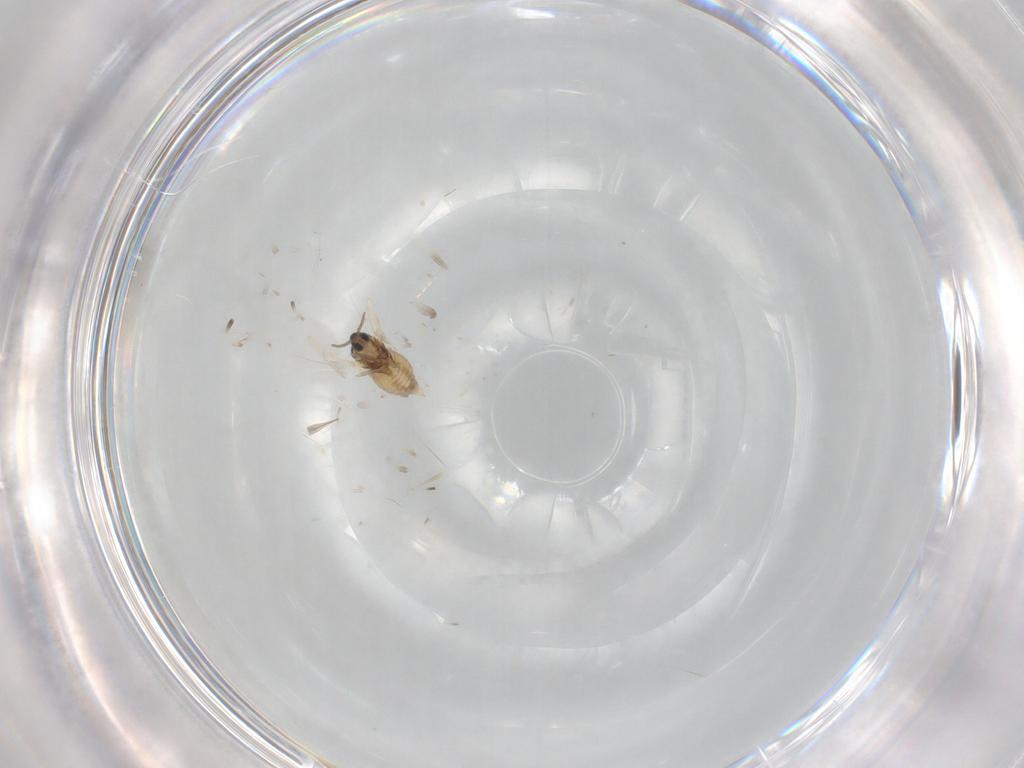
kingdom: Animalia
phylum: Arthropoda
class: Insecta
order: Diptera
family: Cecidomyiidae
